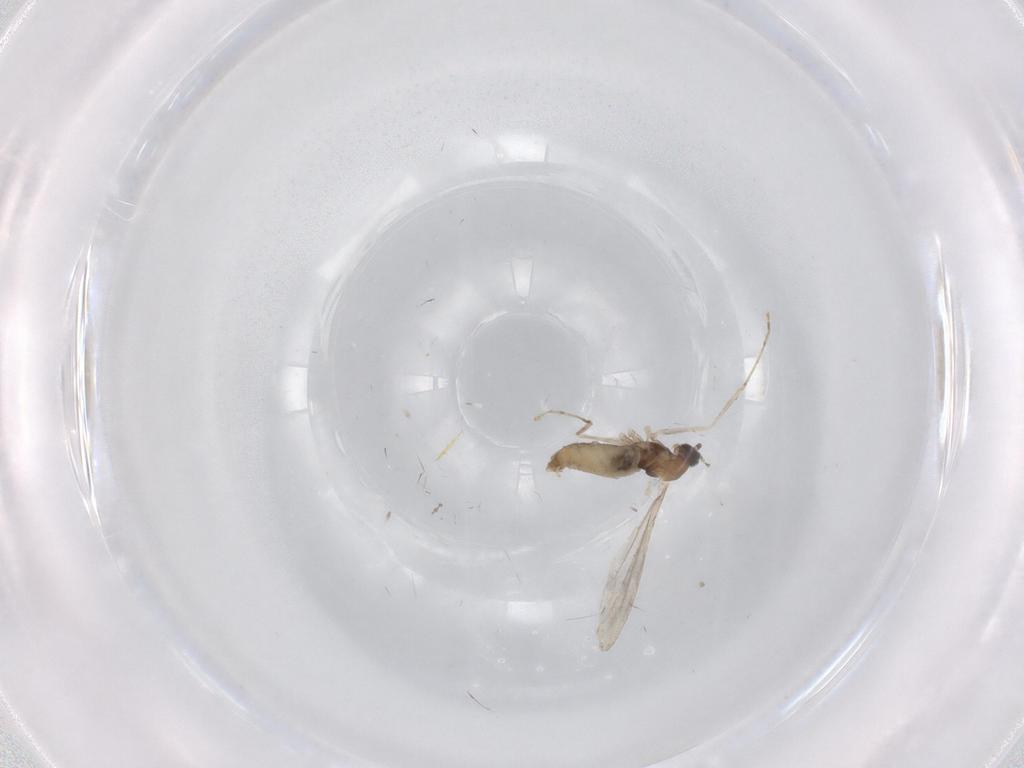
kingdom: Animalia
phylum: Arthropoda
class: Insecta
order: Diptera
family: Cecidomyiidae
